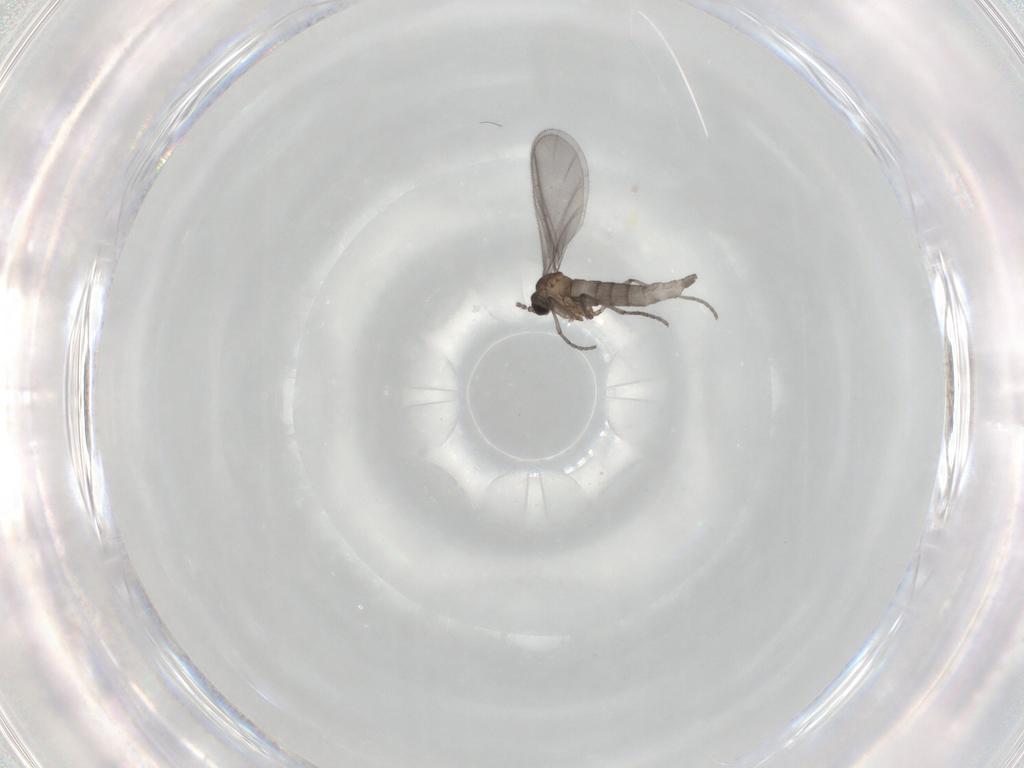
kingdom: Animalia
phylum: Arthropoda
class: Insecta
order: Diptera
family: Sciaridae
